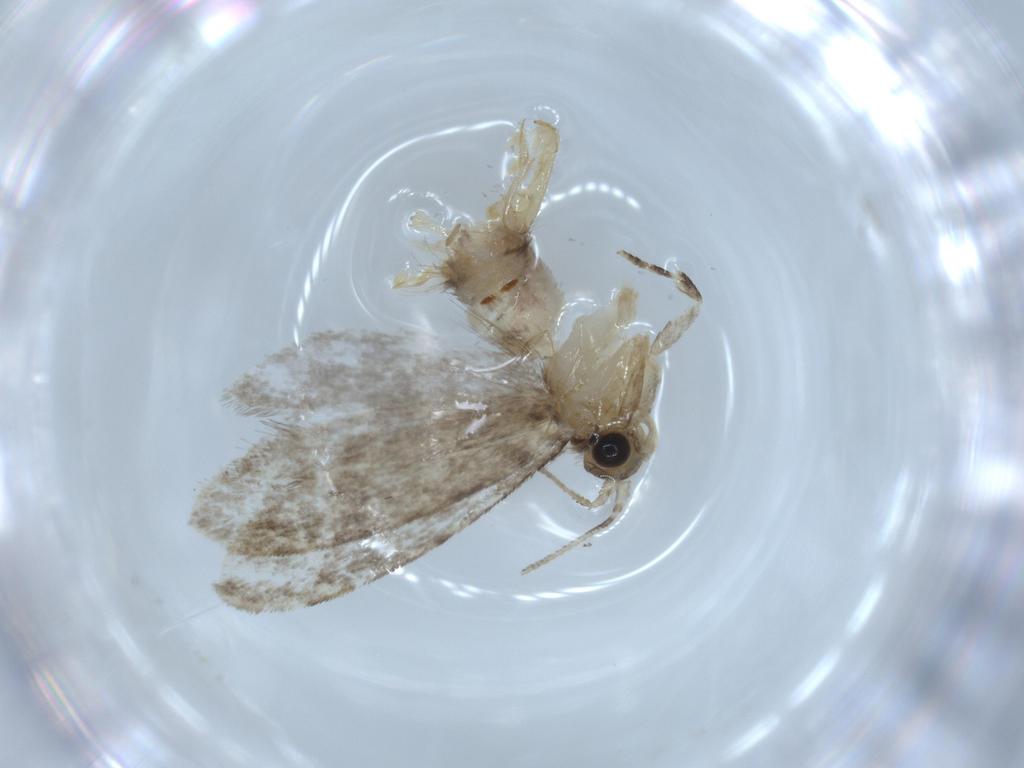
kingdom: Animalia
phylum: Arthropoda
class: Insecta
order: Lepidoptera
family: Tineidae
